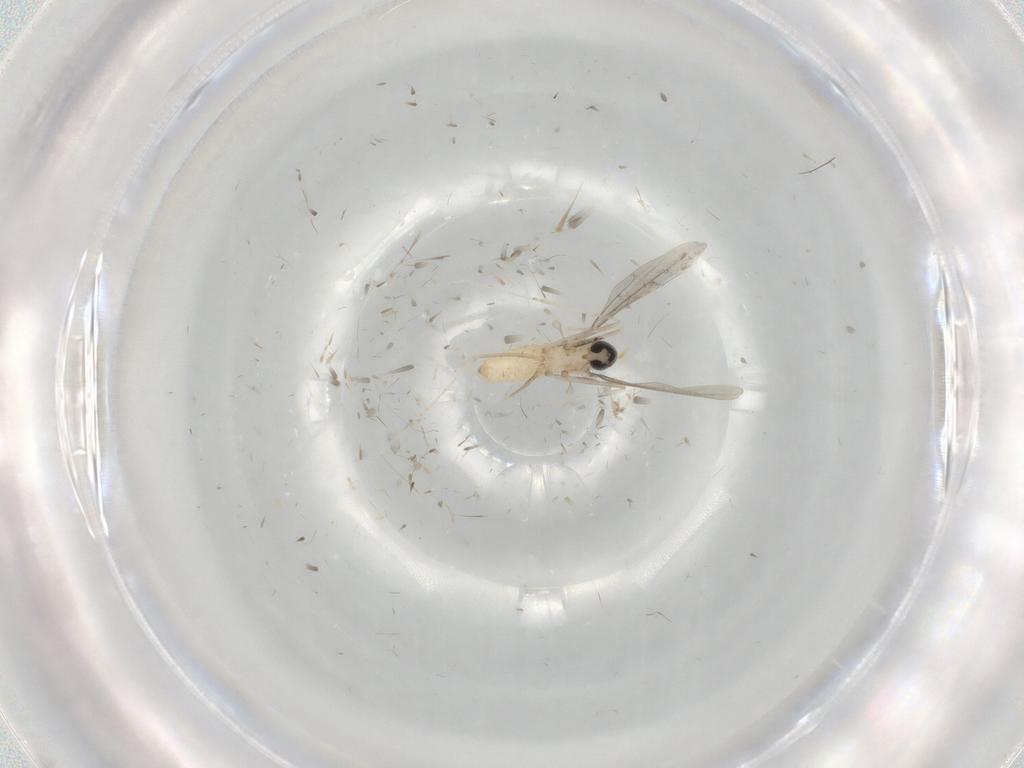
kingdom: Animalia
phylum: Arthropoda
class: Insecta
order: Diptera
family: Cecidomyiidae
